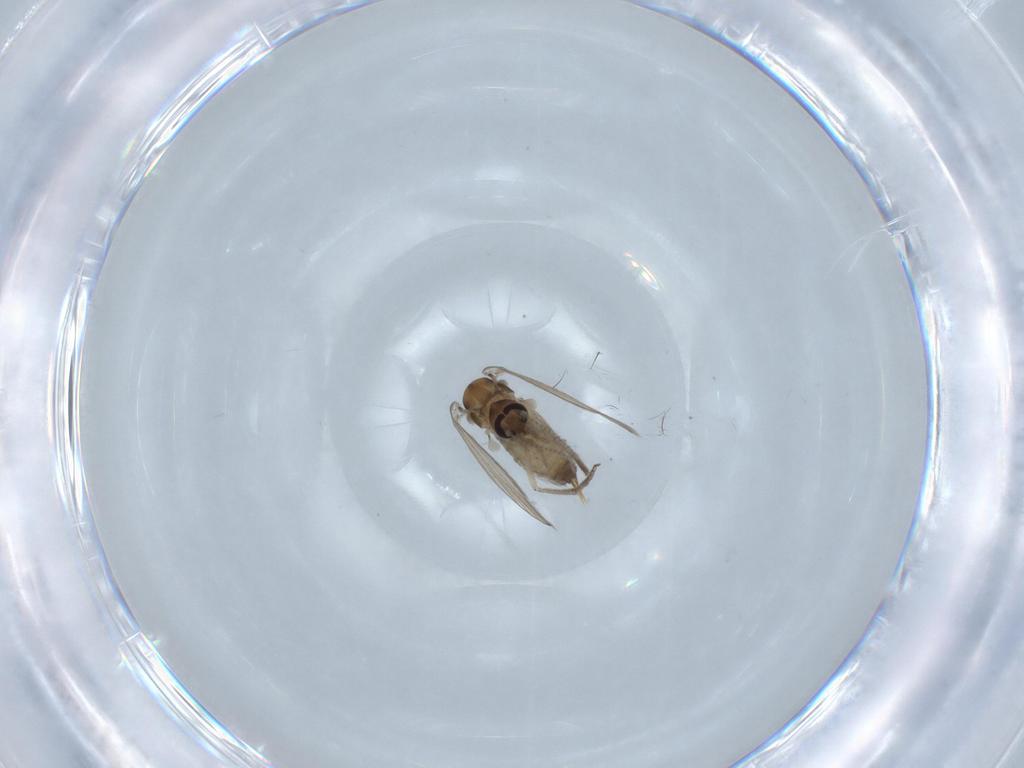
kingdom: Animalia
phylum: Arthropoda
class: Insecta
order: Diptera
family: Psychodidae
